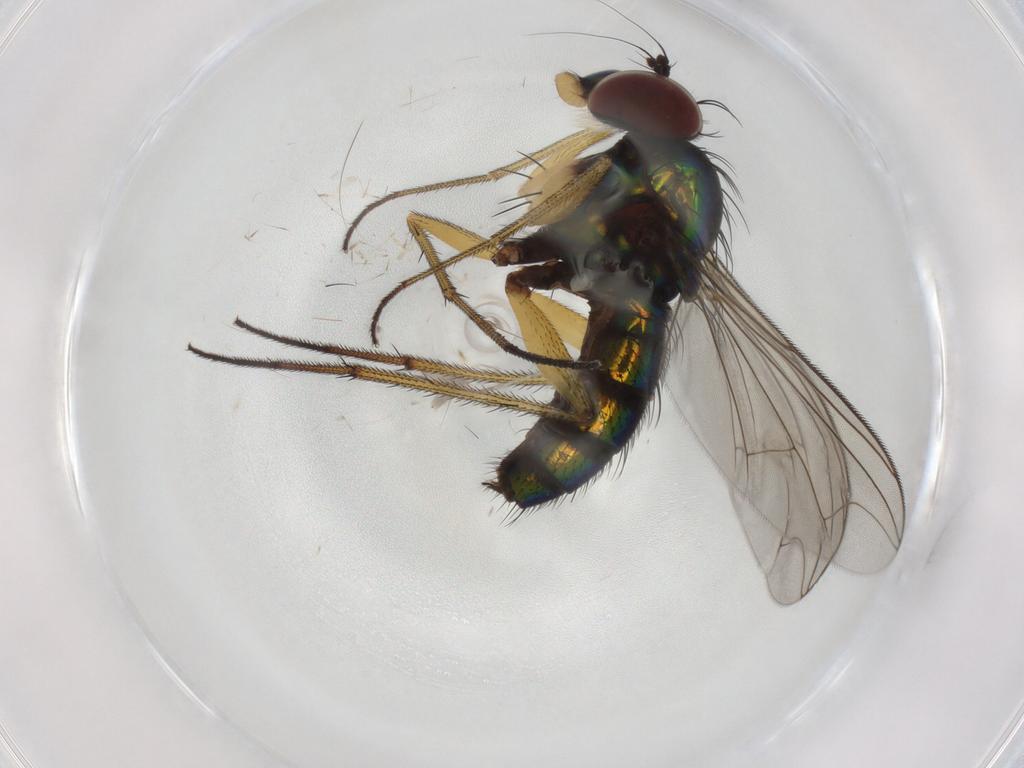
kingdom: Animalia
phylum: Arthropoda
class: Insecta
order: Diptera
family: Dolichopodidae
